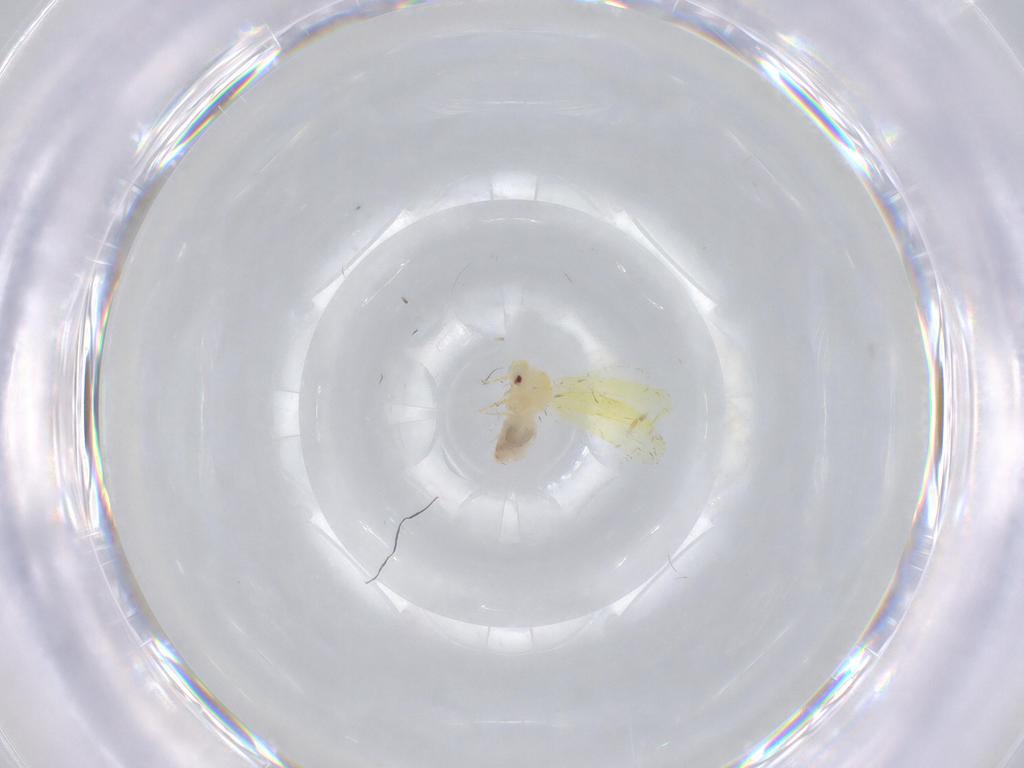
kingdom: Animalia
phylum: Arthropoda
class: Insecta
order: Hemiptera
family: Aleyrodidae
